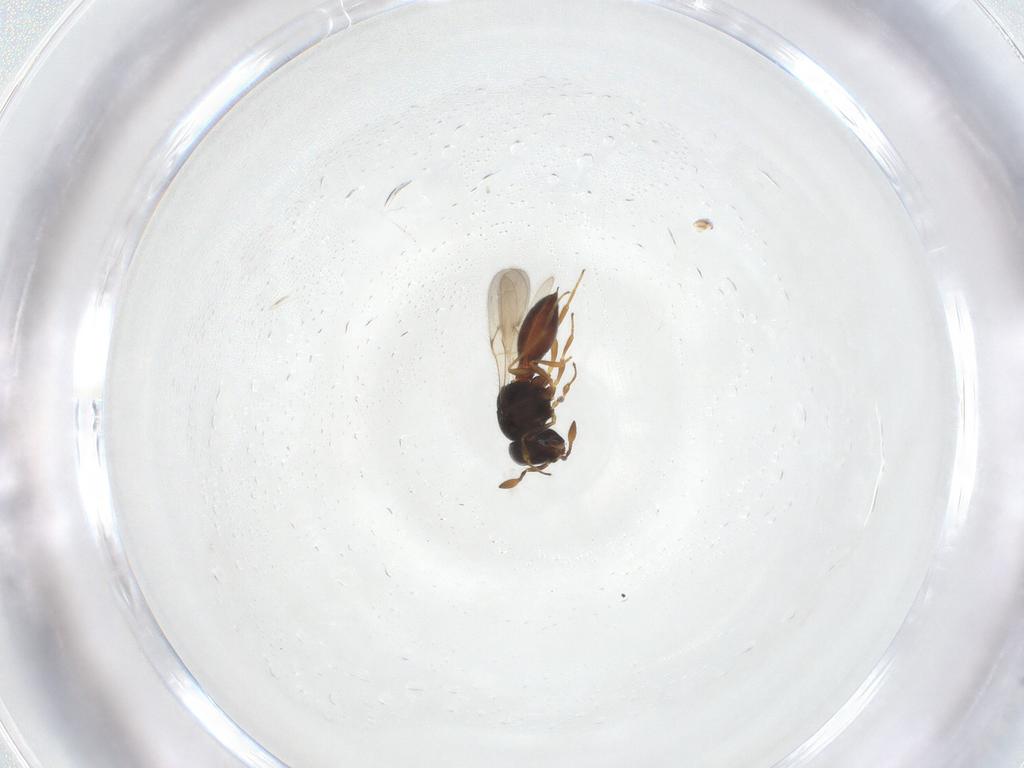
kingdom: Animalia
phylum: Arthropoda
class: Arachnida
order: Araneae
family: Pholcidae
